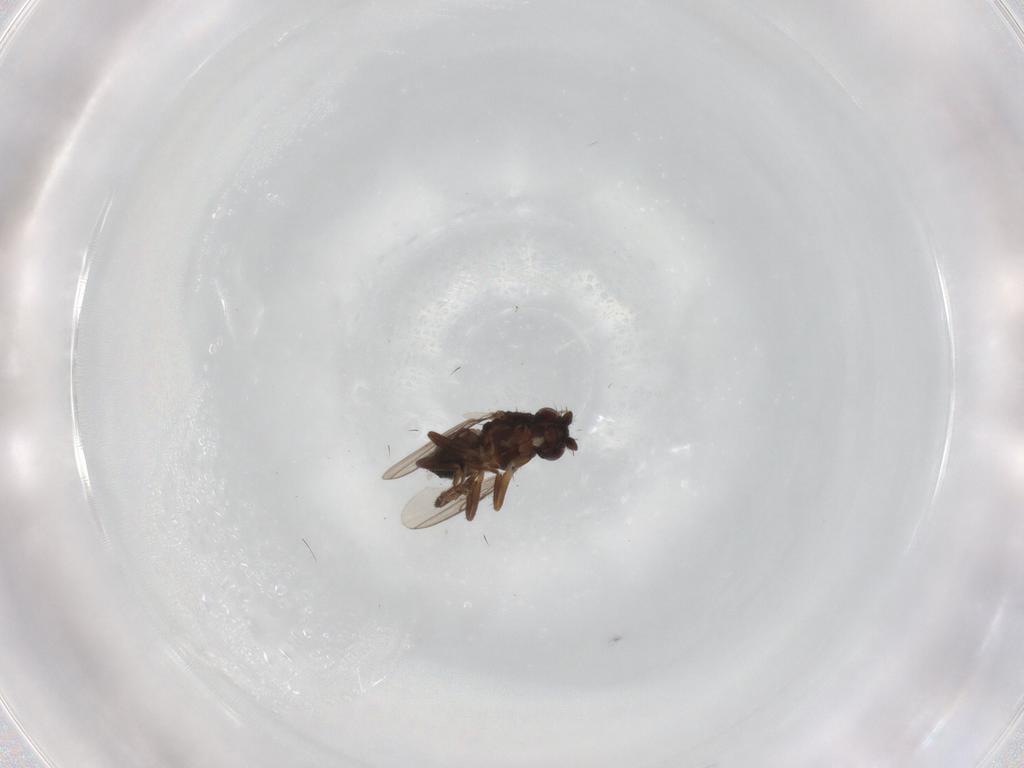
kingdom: Animalia
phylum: Arthropoda
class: Insecta
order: Diptera
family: Sphaeroceridae
